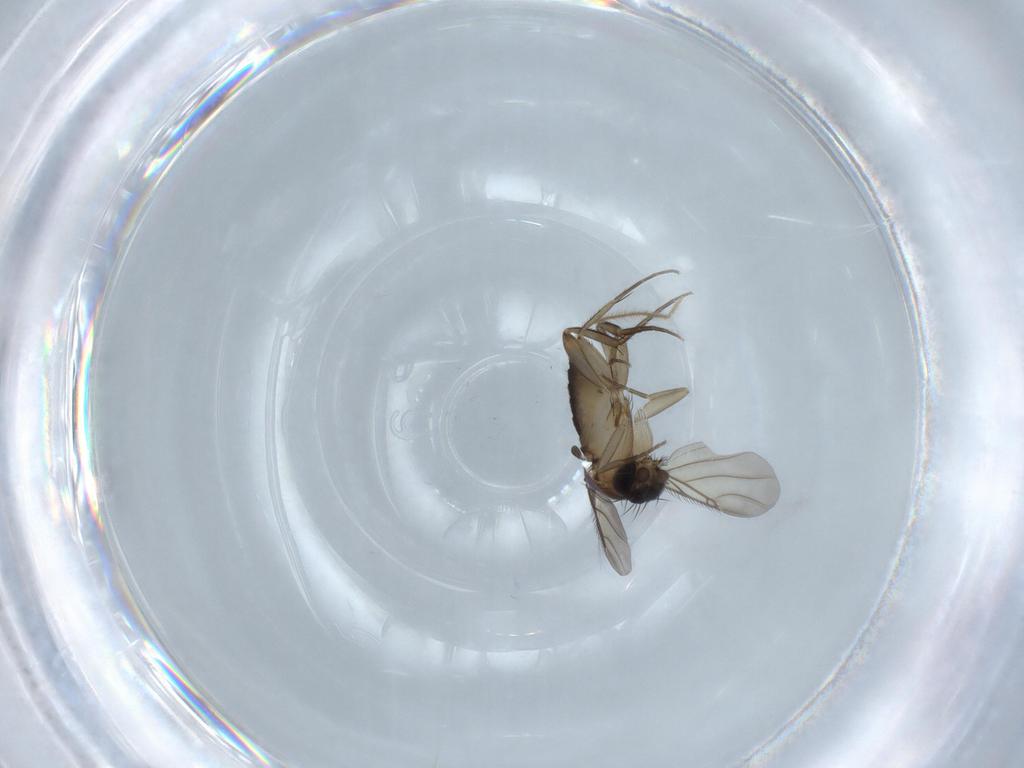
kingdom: Animalia
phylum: Arthropoda
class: Insecta
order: Diptera
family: Phoridae
